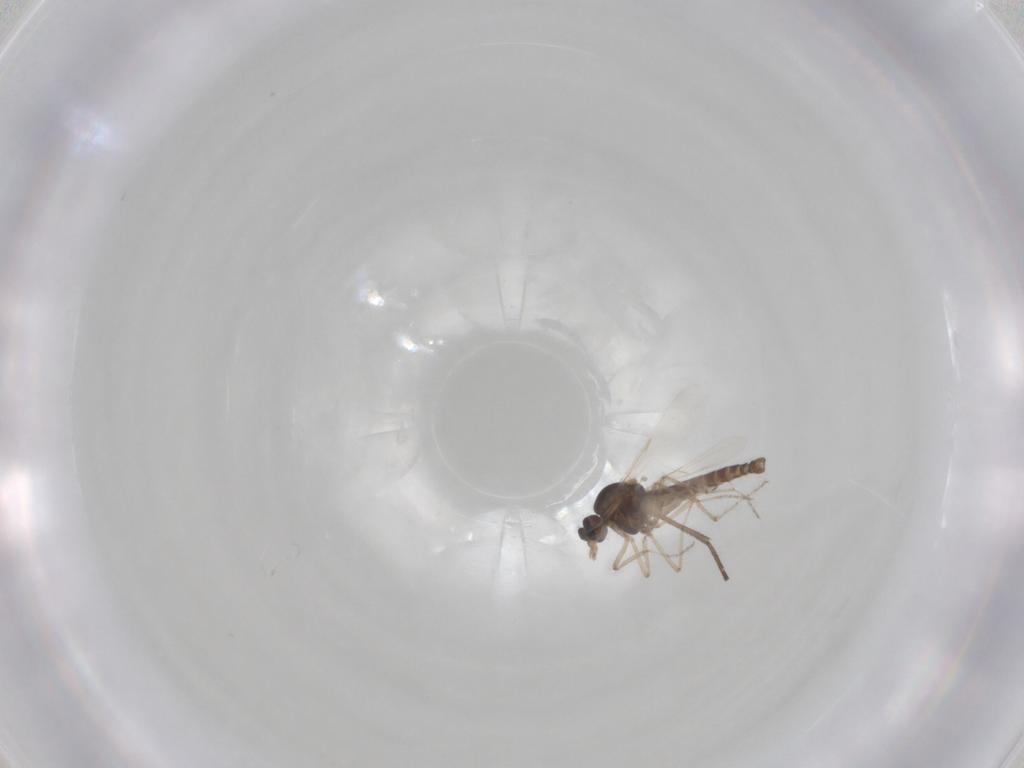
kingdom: Animalia
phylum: Arthropoda
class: Insecta
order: Diptera
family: Ceratopogonidae
